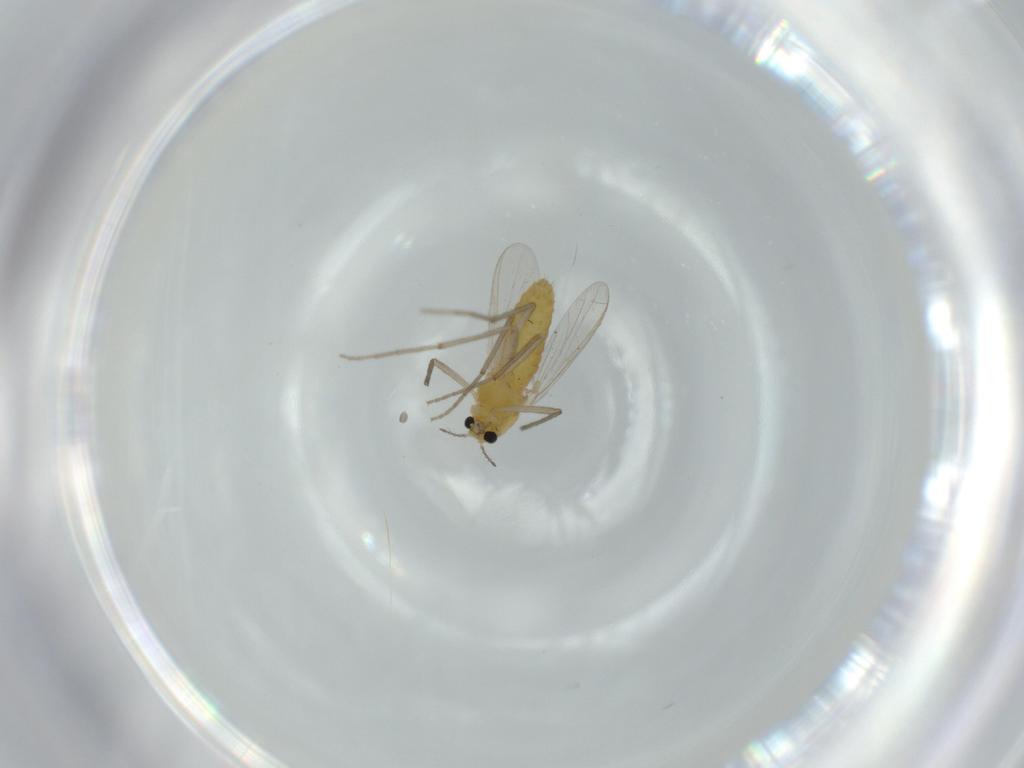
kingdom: Animalia
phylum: Arthropoda
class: Insecta
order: Diptera
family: Chironomidae
